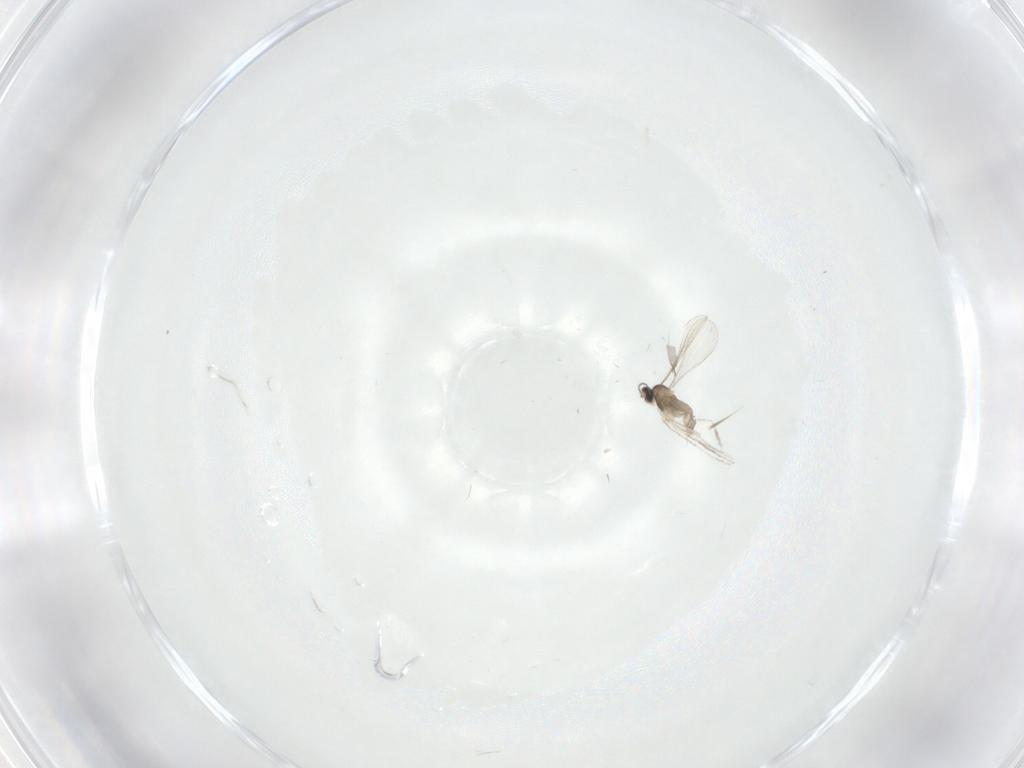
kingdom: Animalia
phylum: Arthropoda
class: Insecta
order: Diptera
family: Ceratopogonidae
